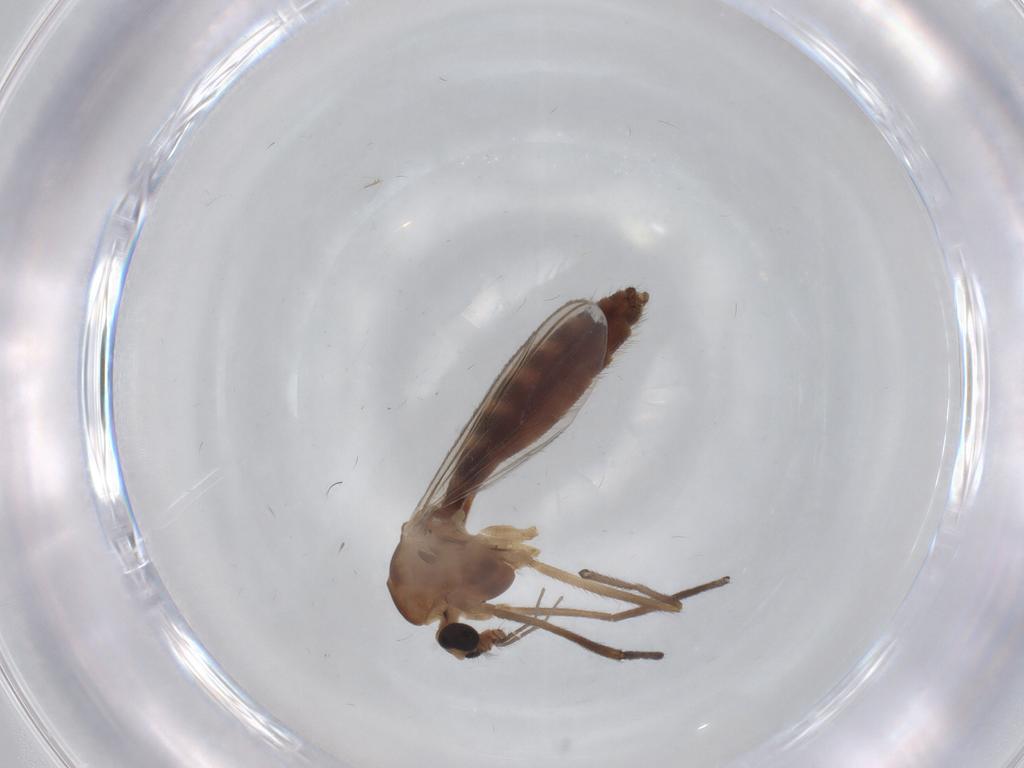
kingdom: Animalia
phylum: Arthropoda
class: Insecta
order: Diptera
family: Chironomidae
